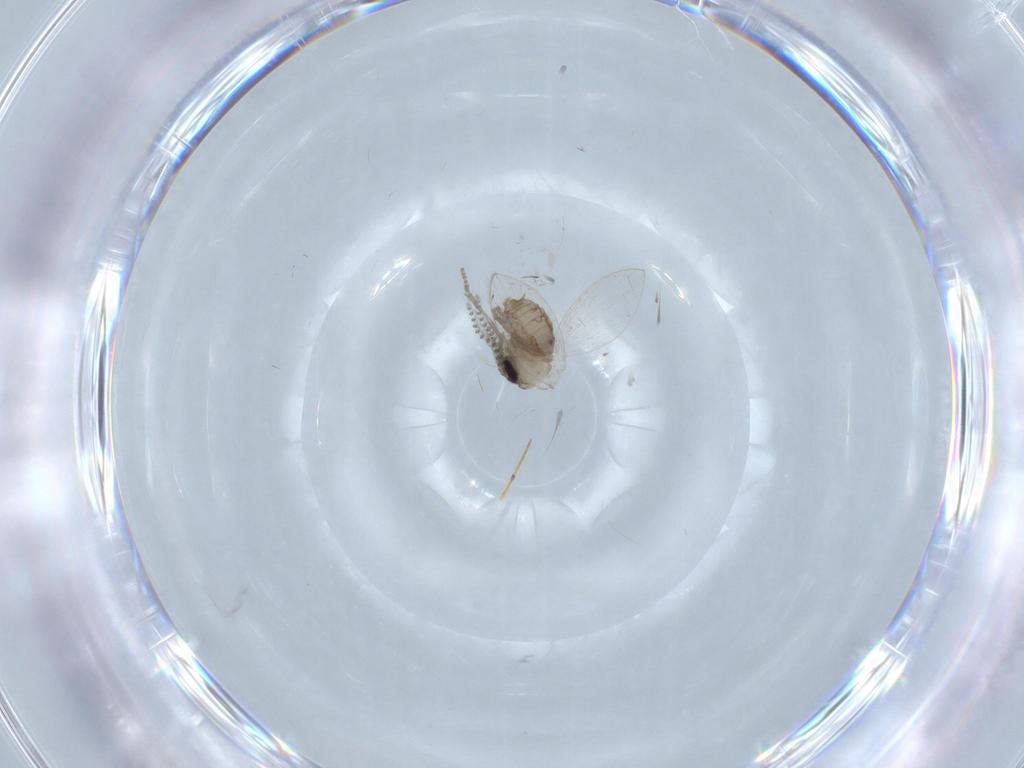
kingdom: Animalia
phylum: Arthropoda
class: Insecta
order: Diptera
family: Psychodidae
